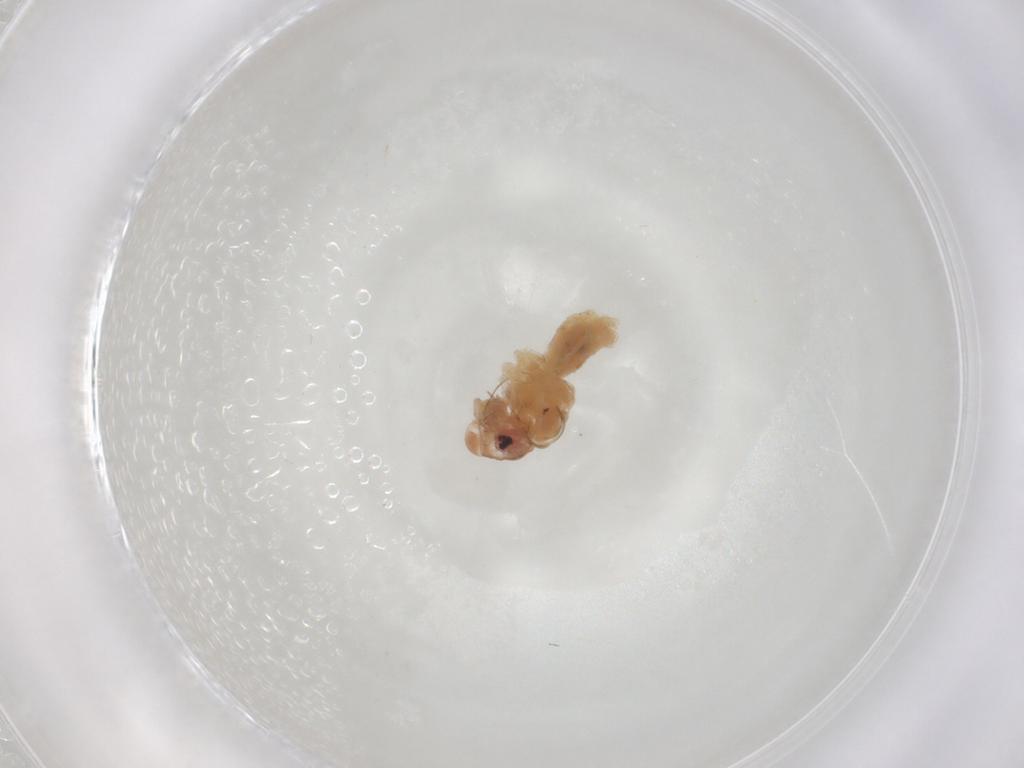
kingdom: Animalia
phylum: Arthropoda
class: Insecta
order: Psocodea
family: Caeciliusidae
